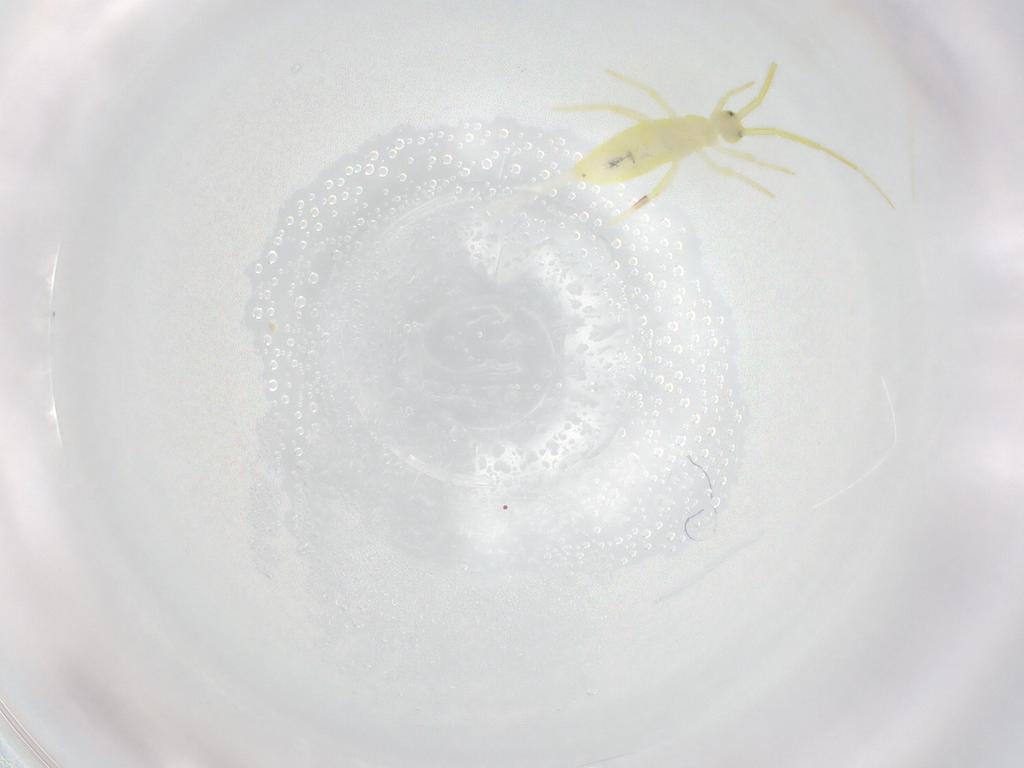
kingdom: Animalia
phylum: Arthropoda
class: Collembola
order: Entomobryomorpha
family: Entomobryidae
